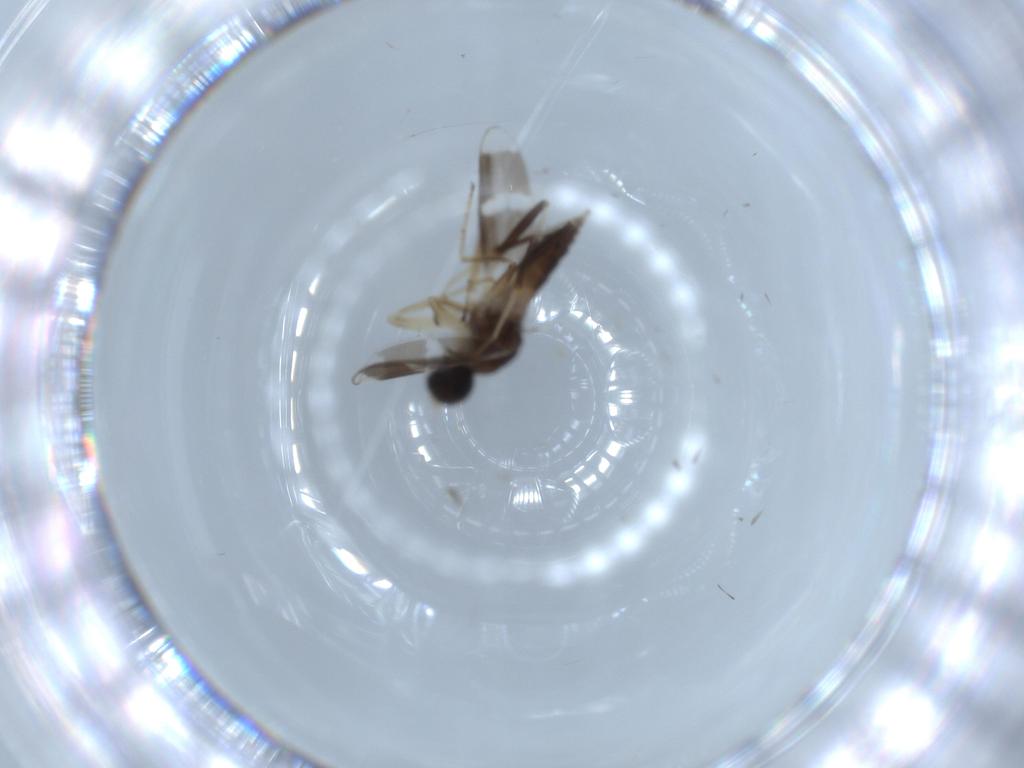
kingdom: Animalia
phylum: Arthropoda
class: Insecta
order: Diptera
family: Hybotidae
